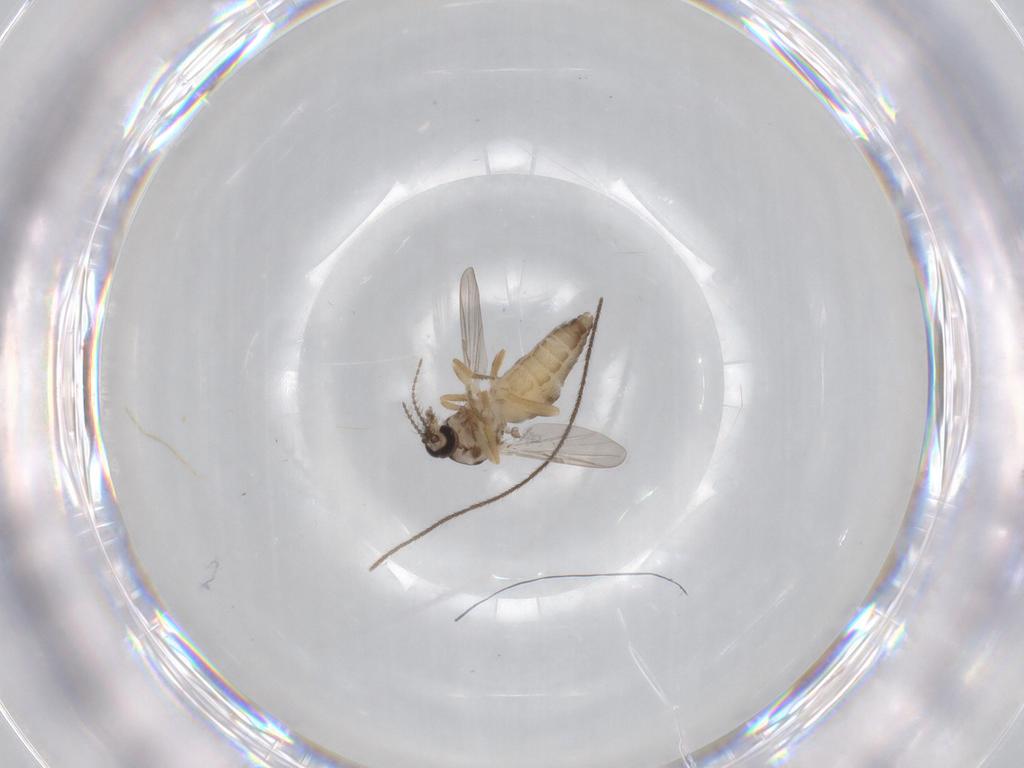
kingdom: Animalia
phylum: Arthropoda
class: Insecta
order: Diptera
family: Ceratopogonidae
